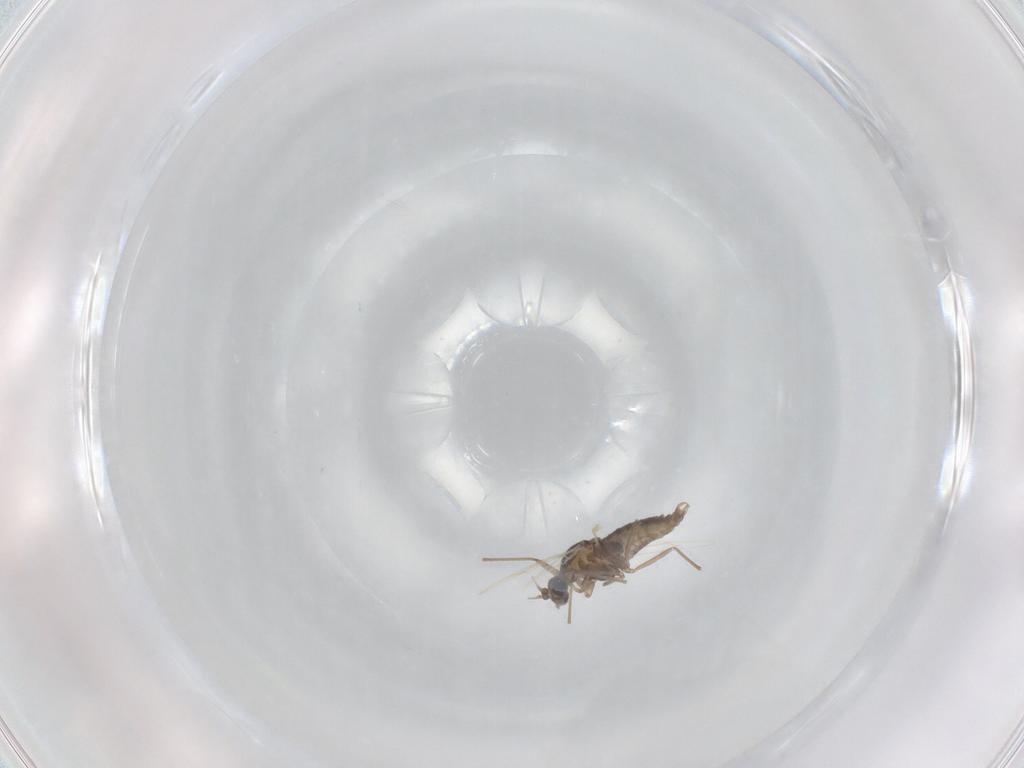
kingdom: Animalia
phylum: Arthropoda
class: Insecta
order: Diptera
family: Cecidomyiidae
